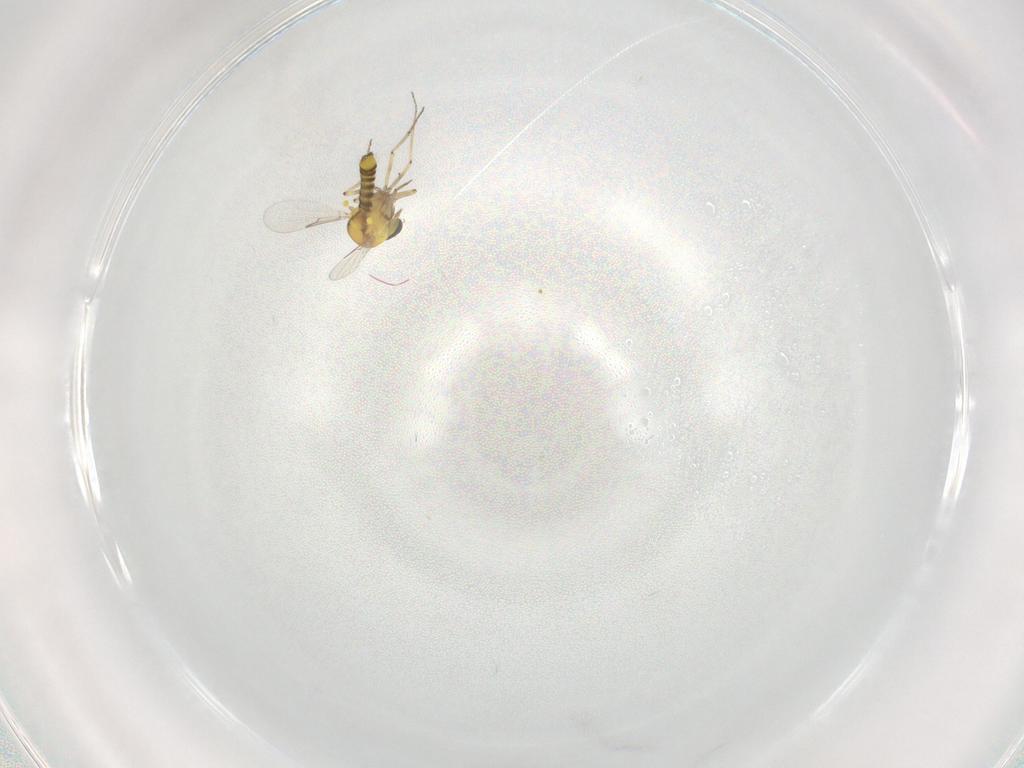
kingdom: Animalia
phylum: Arthropoda
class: Insecta
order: Diptera
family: Ceratopogonidae
